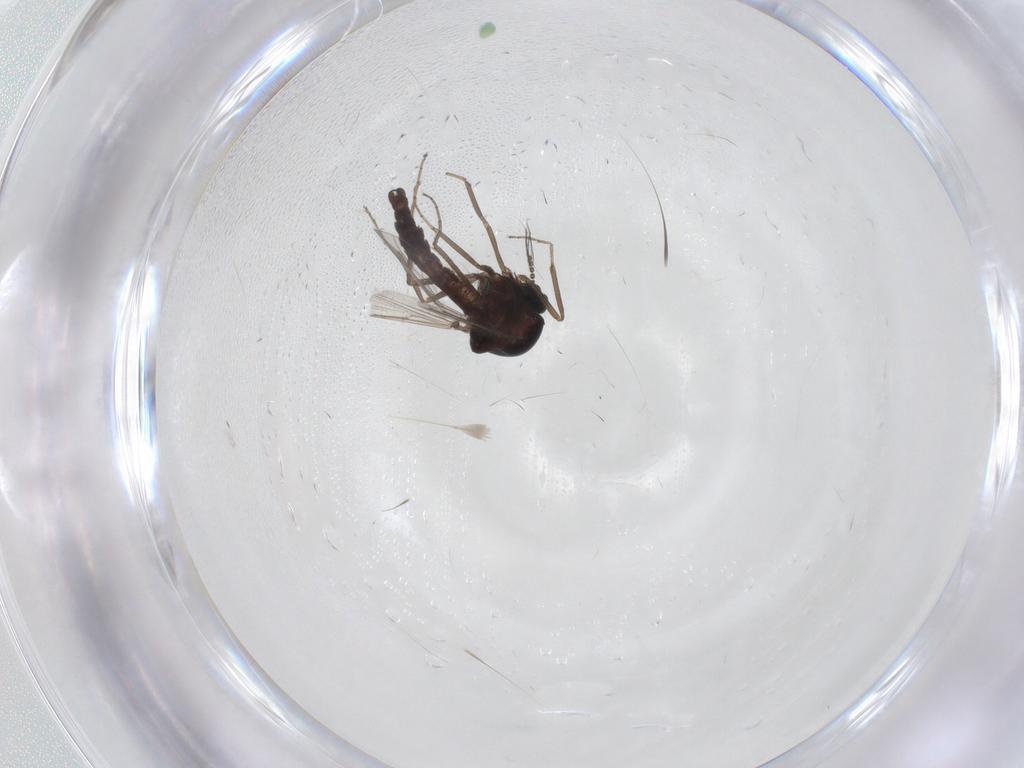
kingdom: Animalia
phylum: Arthropoda
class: Insecta
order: Diptera
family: Ceratopogonidae
